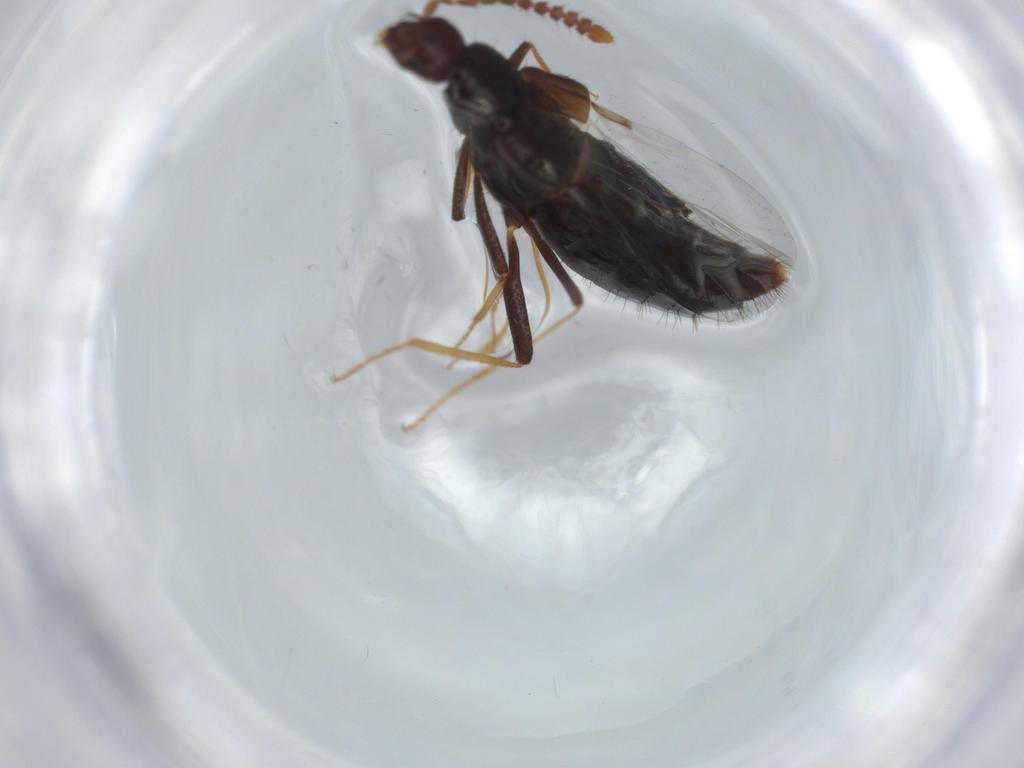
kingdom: Animalia
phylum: Arthropoda
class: Insecta
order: Coleoptera
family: Staphylinidae
